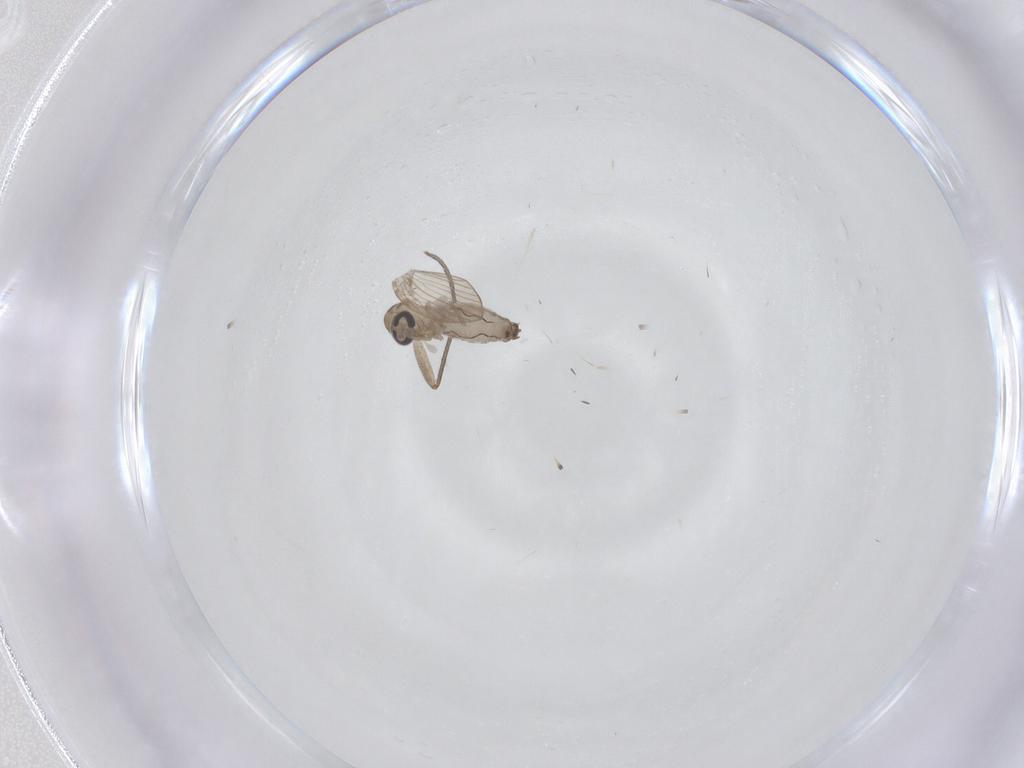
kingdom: Animalia
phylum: Arthropoda
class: Insecta
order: Diptera
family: Psychodidae
